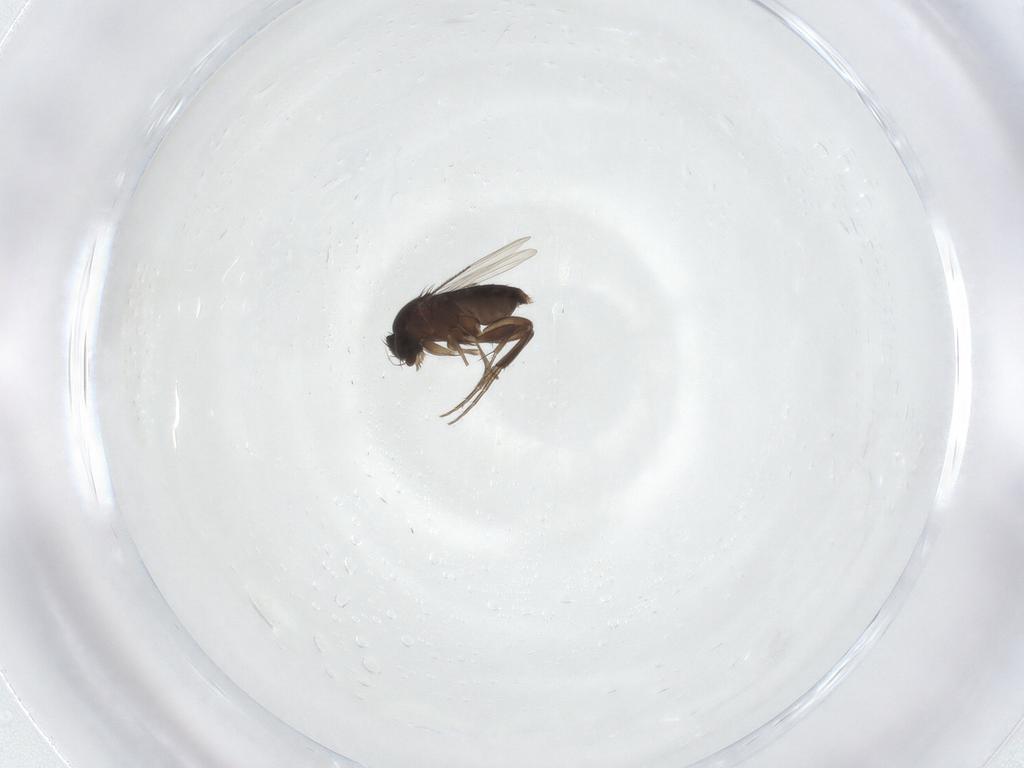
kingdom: Animalia
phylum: Arthropoda
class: Insecta
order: Diptera
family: Phoridae
